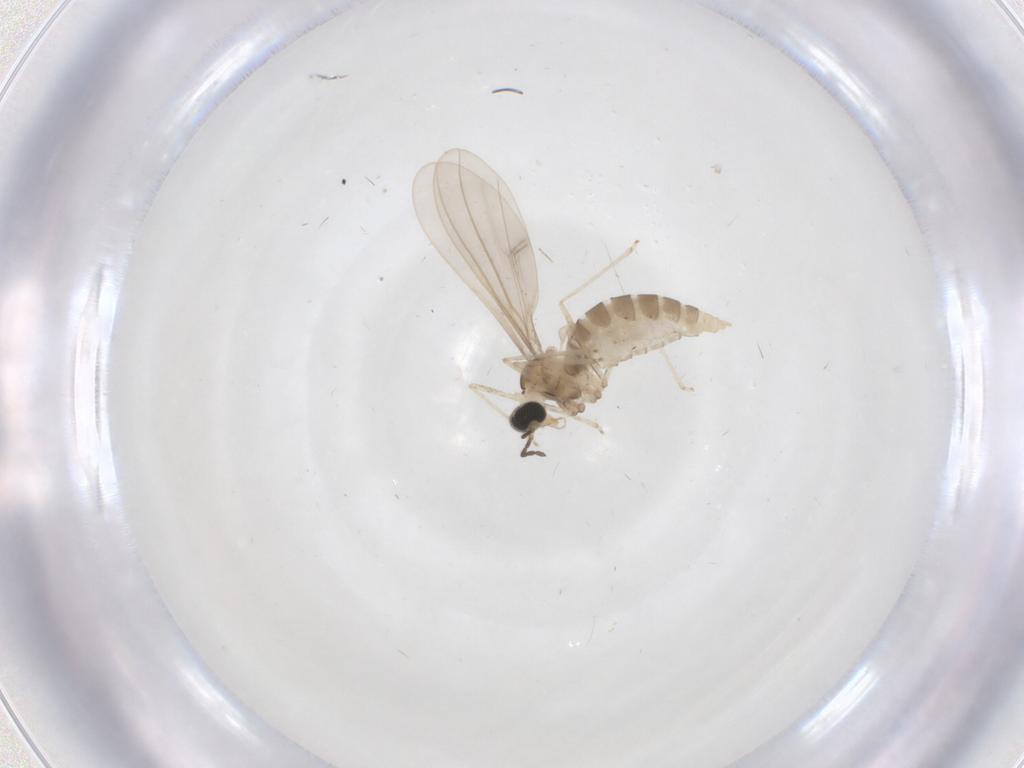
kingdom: Animalia
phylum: Arthropoda
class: Insecta
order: Diptera
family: Cecidomyiidae
